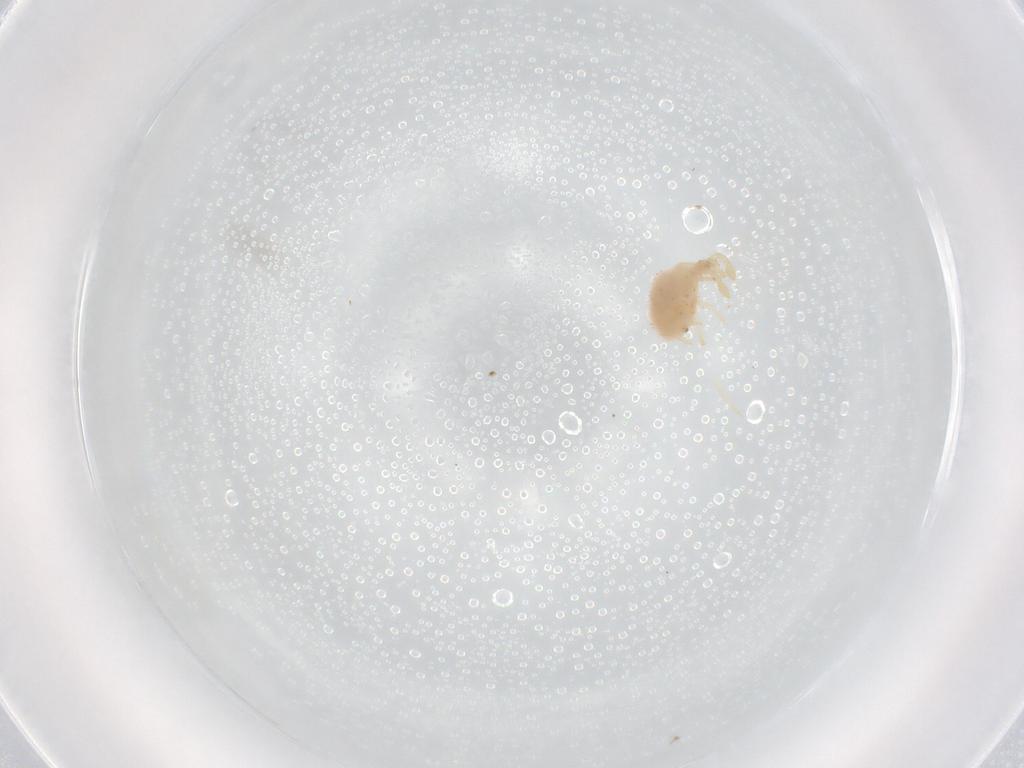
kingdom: Animalia
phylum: Arthropoda
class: Arachnida
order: Mesostigmata
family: Parasitidae
